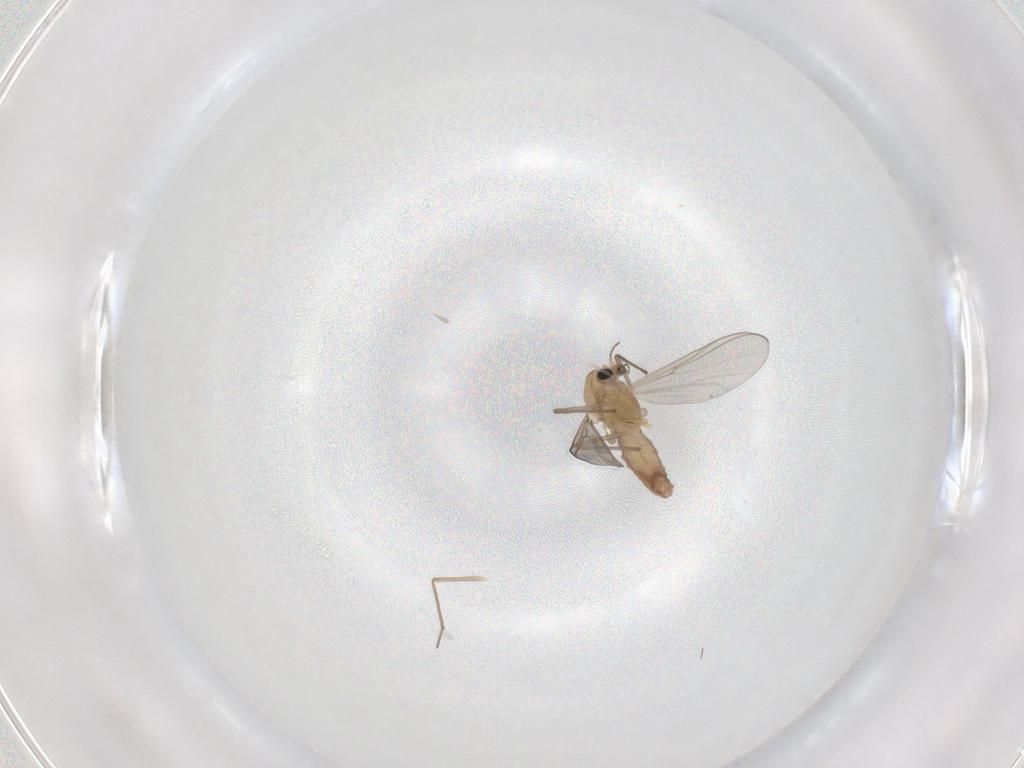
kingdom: Animalia
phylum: Arthropoda
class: Insecta
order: Diptera
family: Chironomidae
